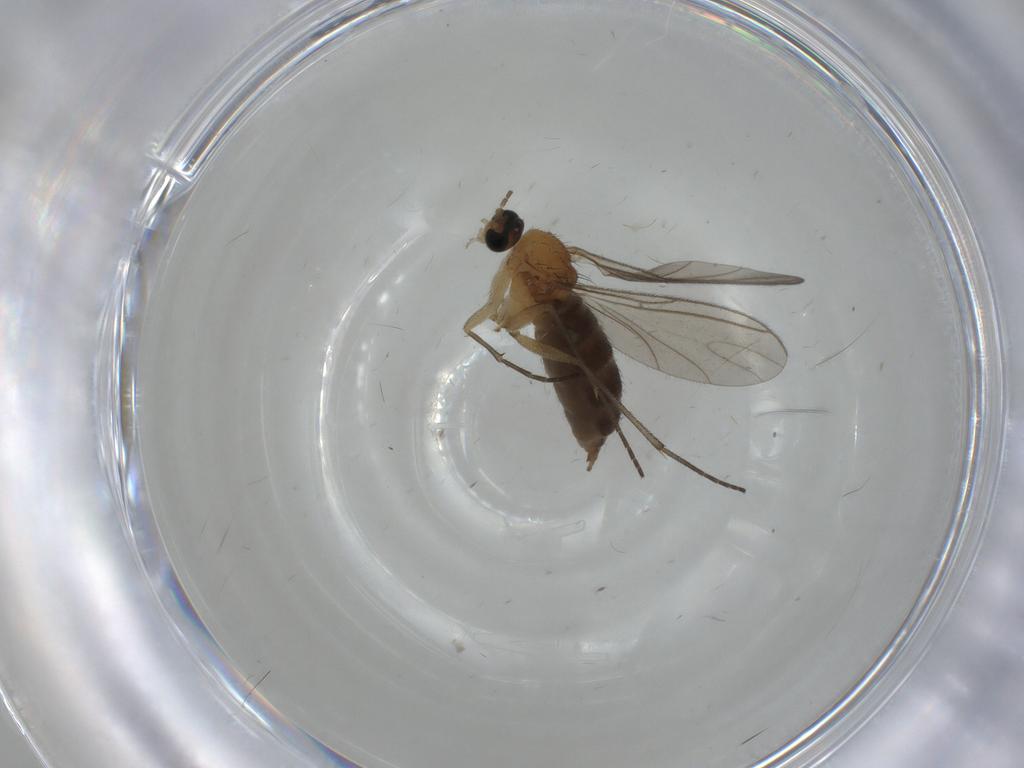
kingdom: Animalia
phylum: Arthropoda
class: Insecta
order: Diptera
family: Sciaridae
